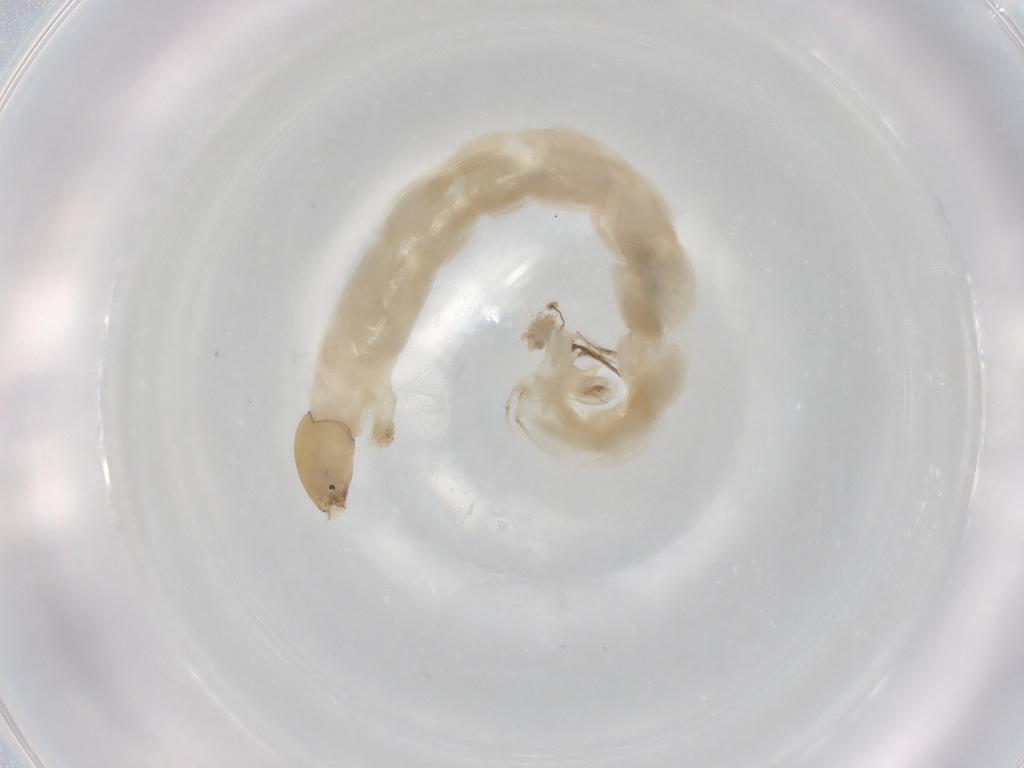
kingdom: Animalia
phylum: Arthropoda
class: Insecta
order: Diptera
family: Chironomidae
